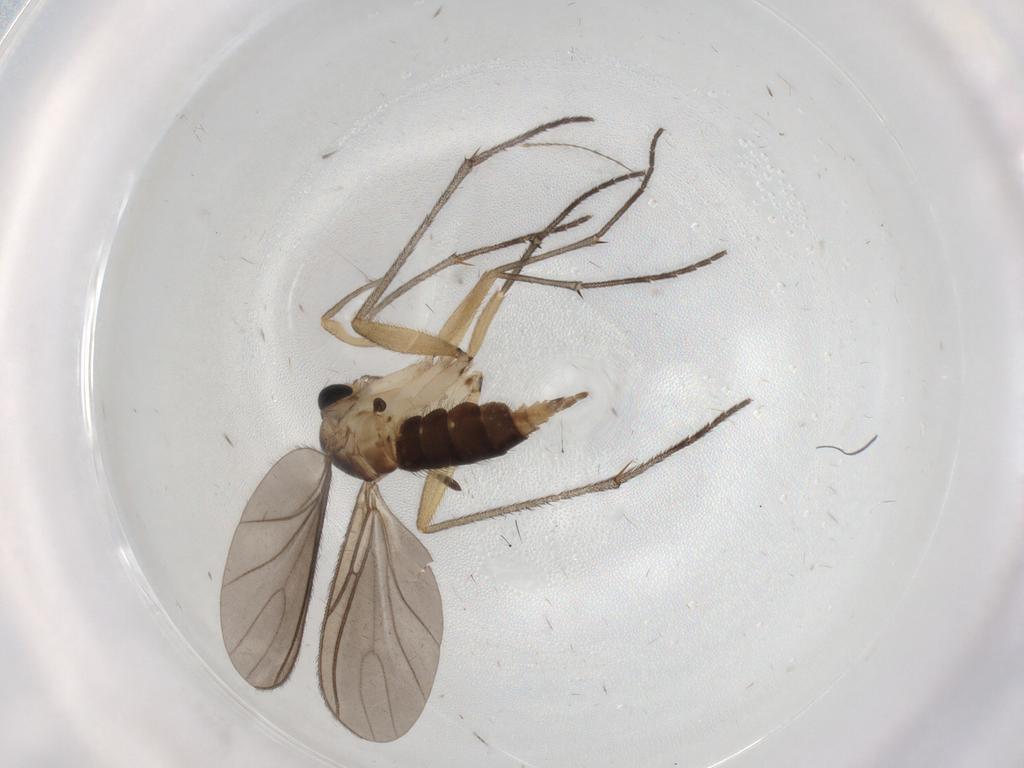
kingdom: Animalia
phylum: Arthropoda
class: Insecta
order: Diptera
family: Sciaridae
